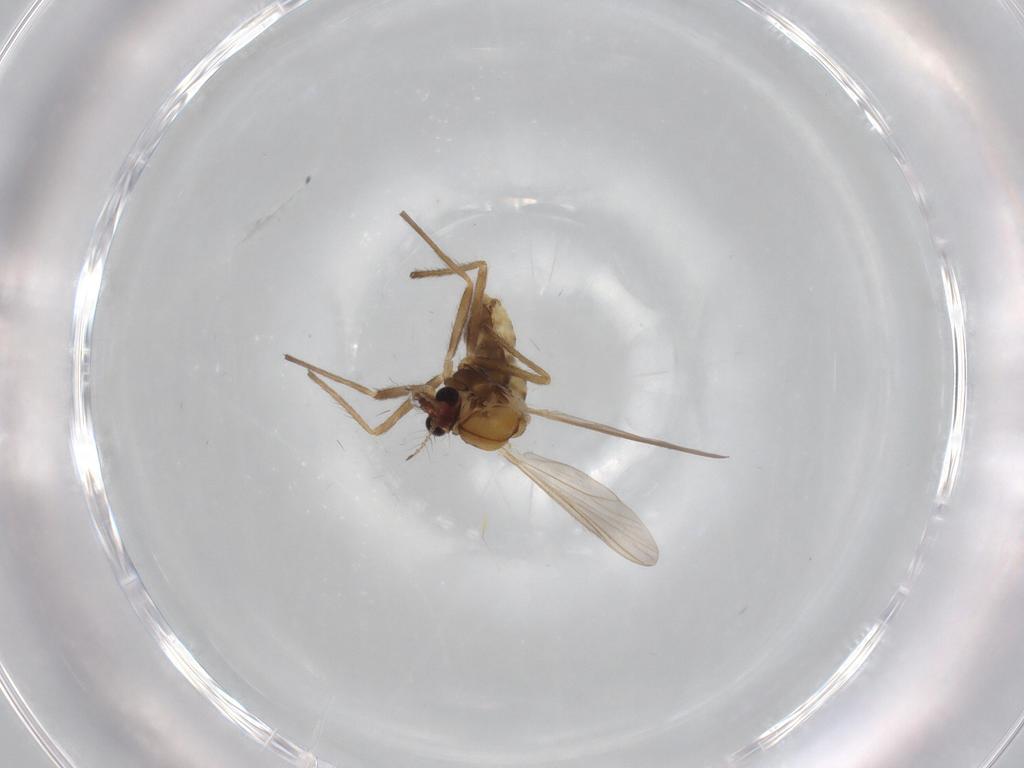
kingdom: Animalia
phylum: Arthropoda
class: Insecta
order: Diptera
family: Chironomidae
